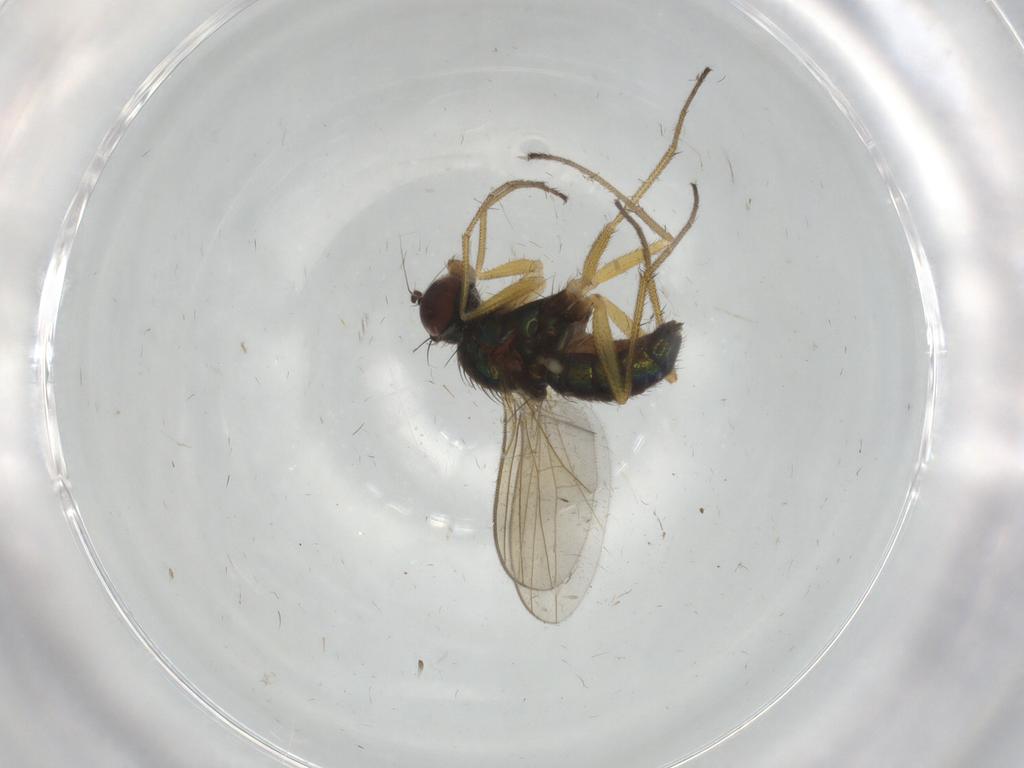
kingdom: Animalia
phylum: Arthropoda
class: Insecta
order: Diptera
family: Dolichopodidae
